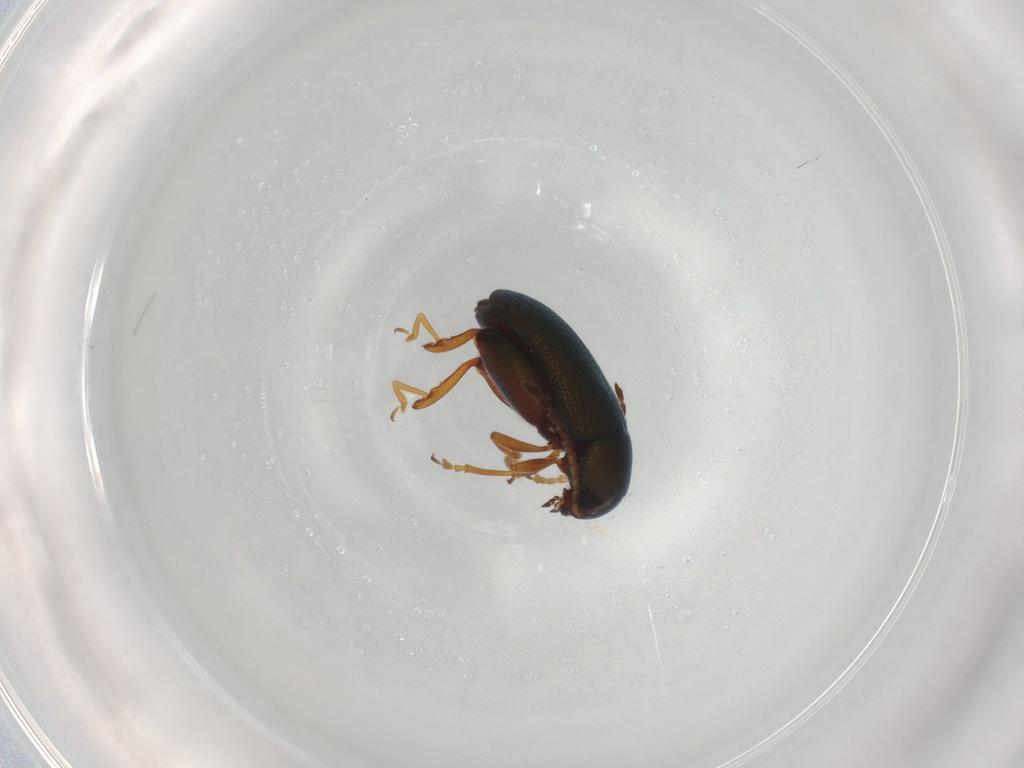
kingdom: Animalia
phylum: Arthropoda
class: Insecta
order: Coleoptera
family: Chrysomelidae
